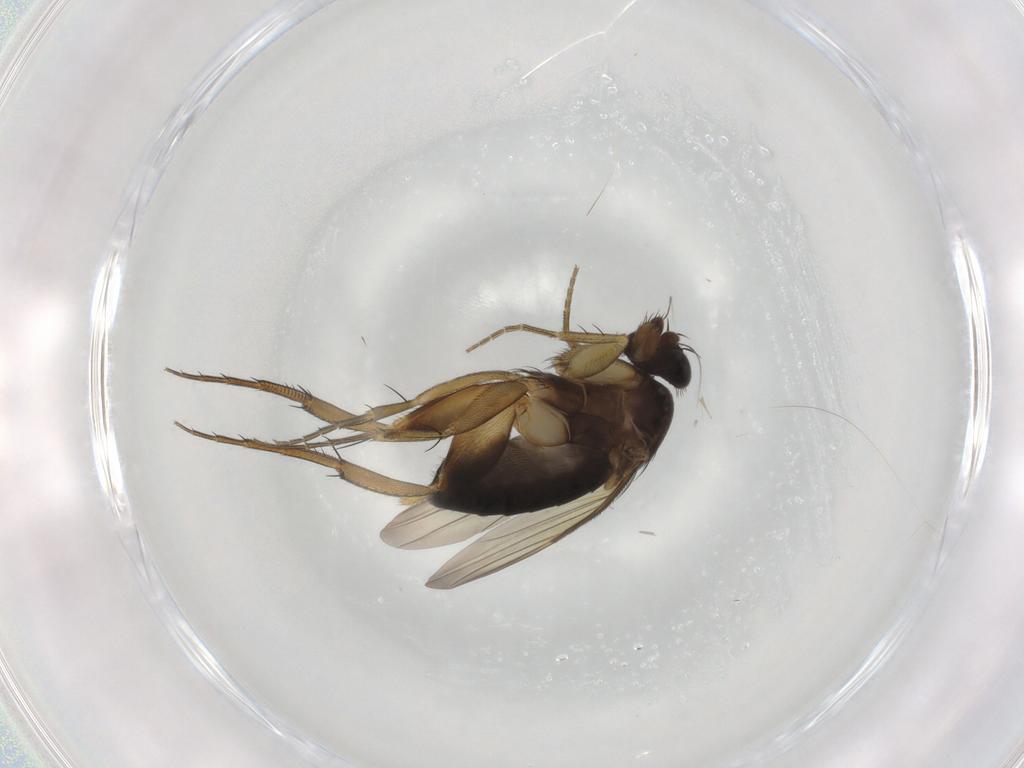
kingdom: Animalia
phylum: Arthropoda
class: Insecta
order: Diptera
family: Phoridae
